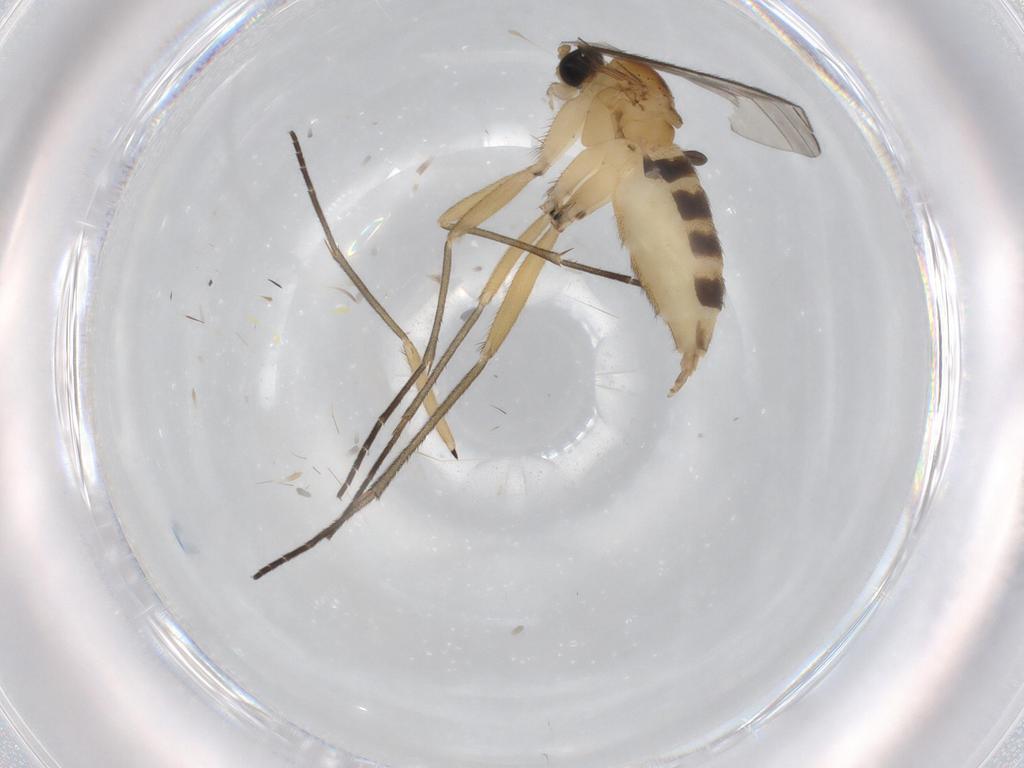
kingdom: Animalia
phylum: Arthropoda
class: Insecta
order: Diptera
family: Sciaridae
